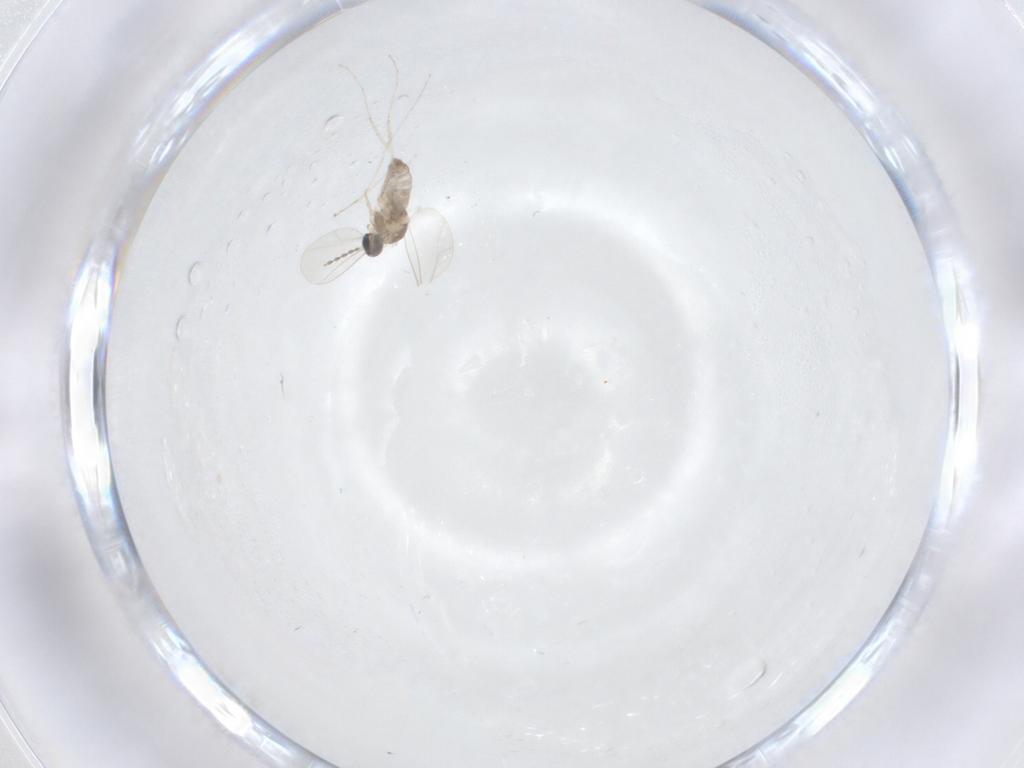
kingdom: Animalia
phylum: Arthropoda
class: Insecta
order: Diptera
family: Cecidomyiidae
